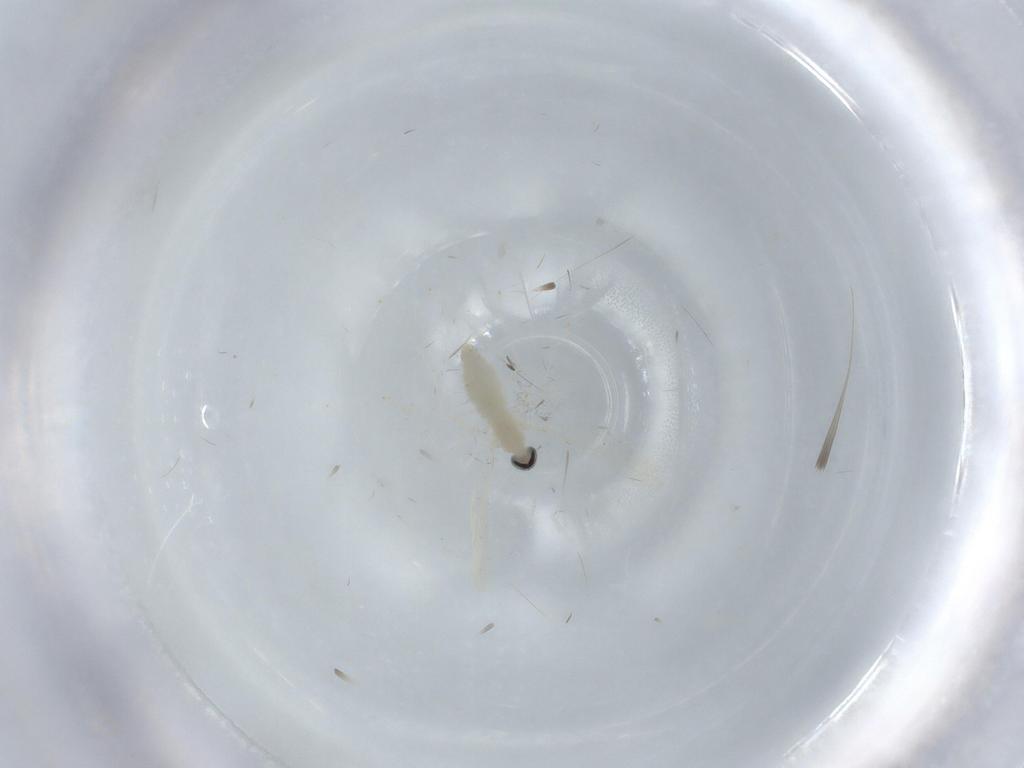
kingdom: Animalia
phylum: Arthropoda
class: Insecta
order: Diptera
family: Cecidomyiidae
